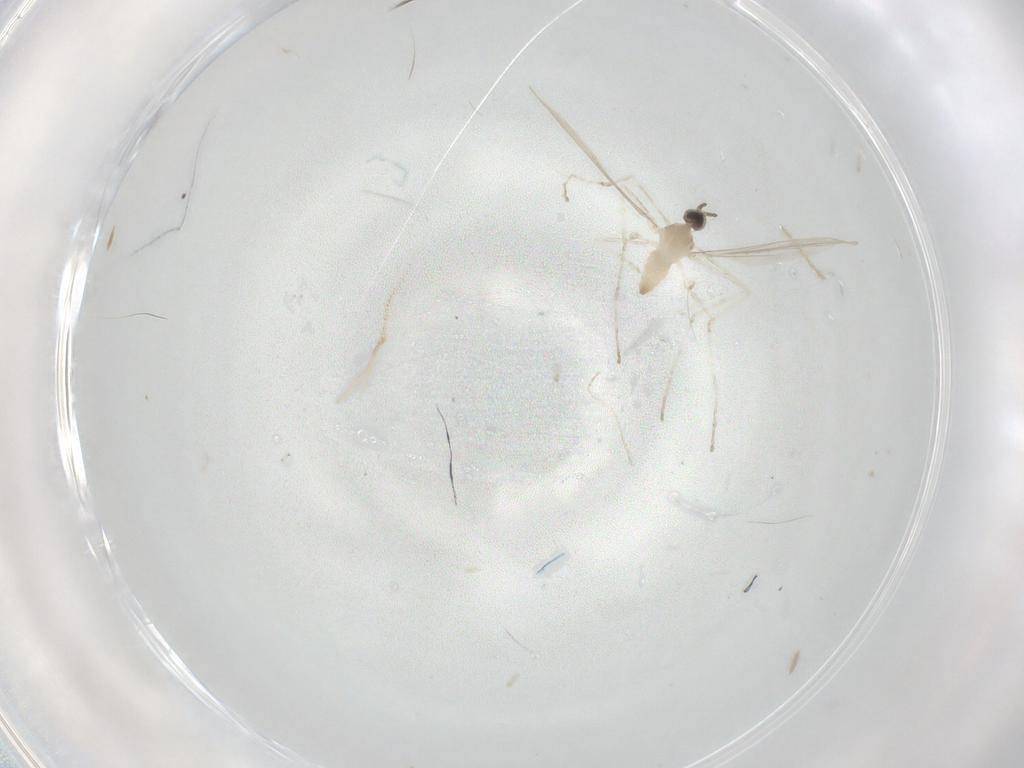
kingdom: Animalia
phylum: Arthropoda
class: Insecta
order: Diptera
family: Cecidomyiidae
